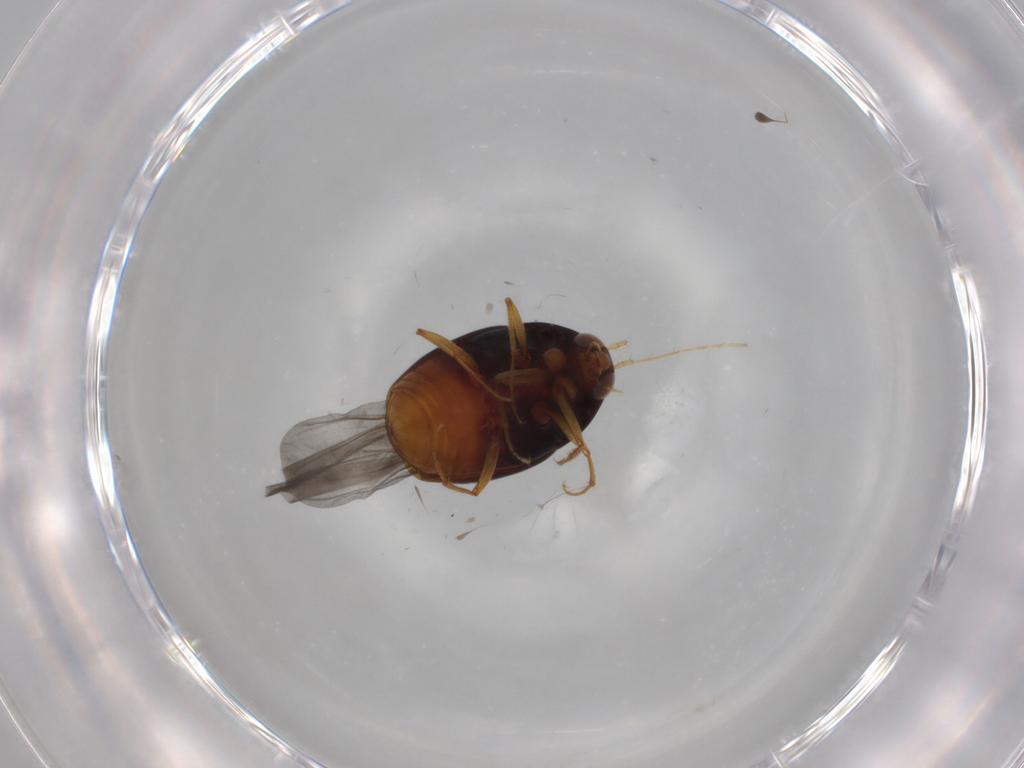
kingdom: Animalia
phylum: Arthropoda
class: Insecta
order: Coleoptera
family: Staphylinidae
